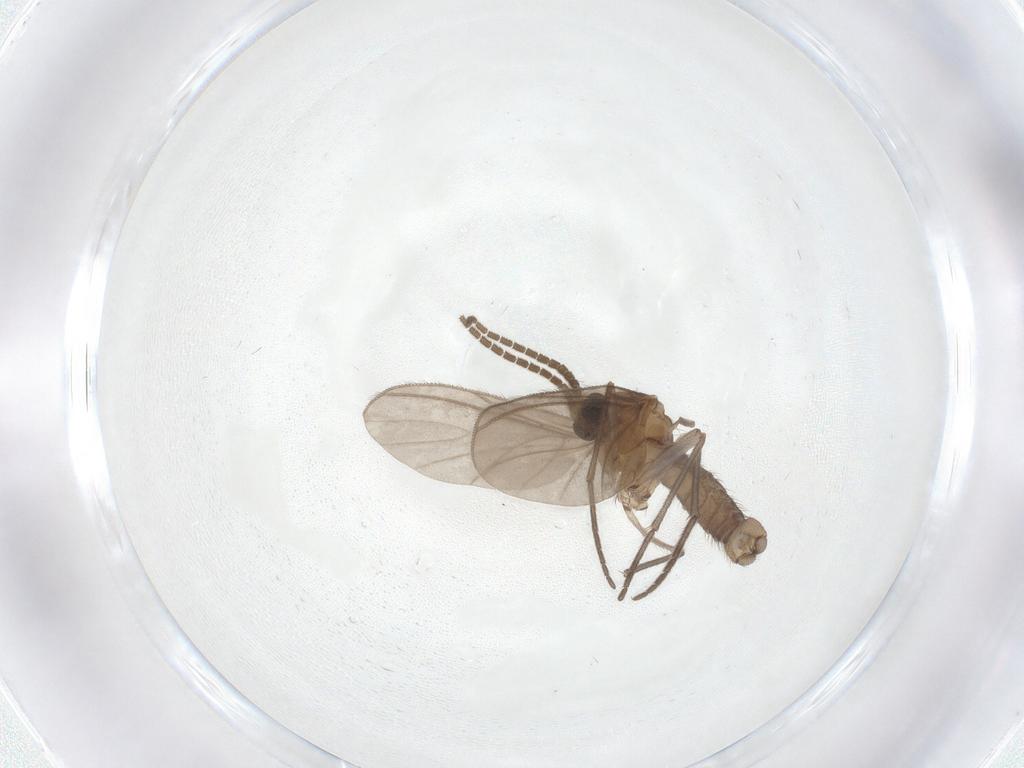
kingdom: Animalia
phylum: Arthropoda
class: Insecta
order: Diptera
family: Sciaridae
